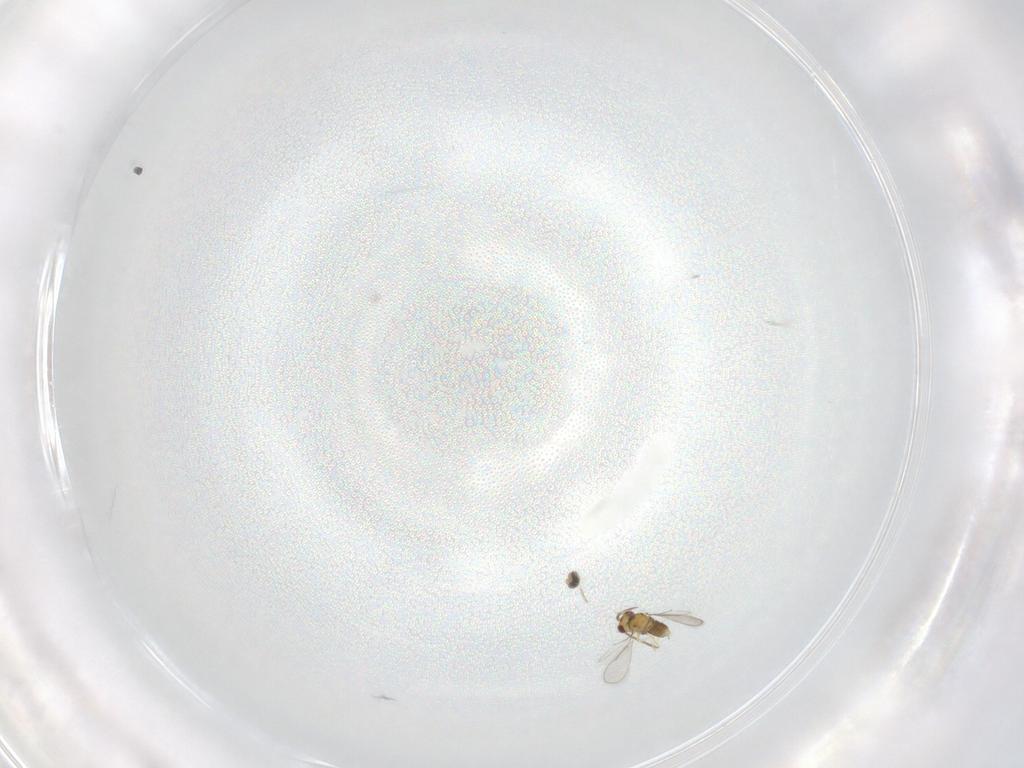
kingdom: Animalia
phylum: Arthropoda
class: Insecta
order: Diptera
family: Cecidomyiidae
